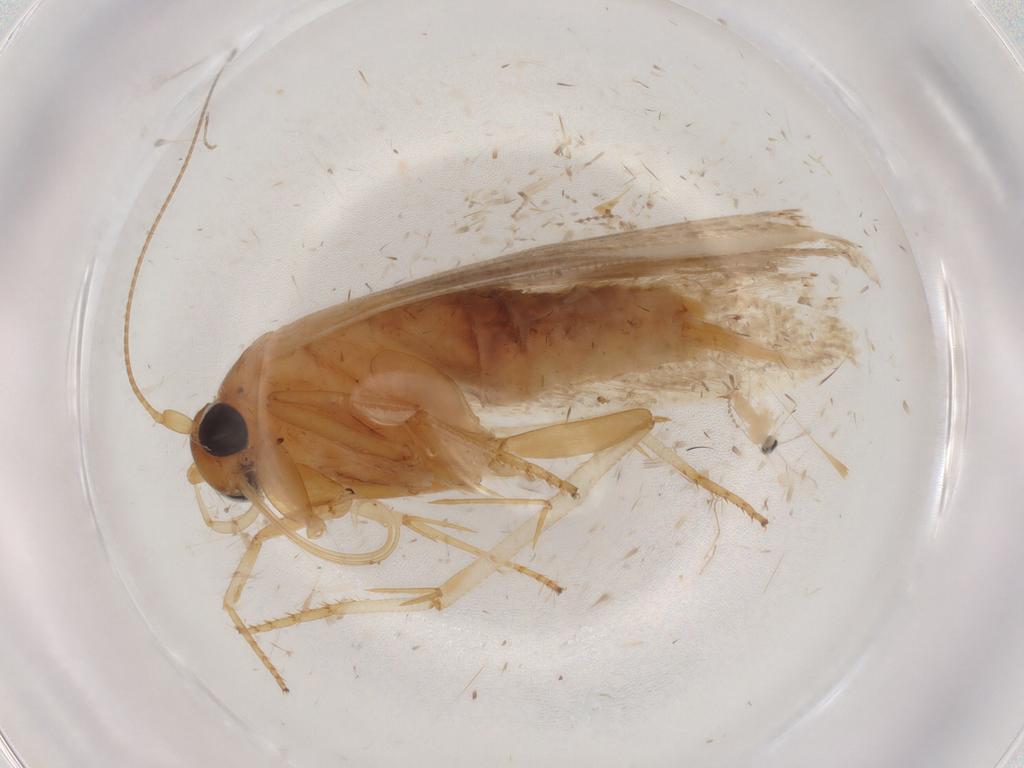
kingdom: Animalia
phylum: Arthropoda
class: Insecta
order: Lepidoptera
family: Blastobasidae
